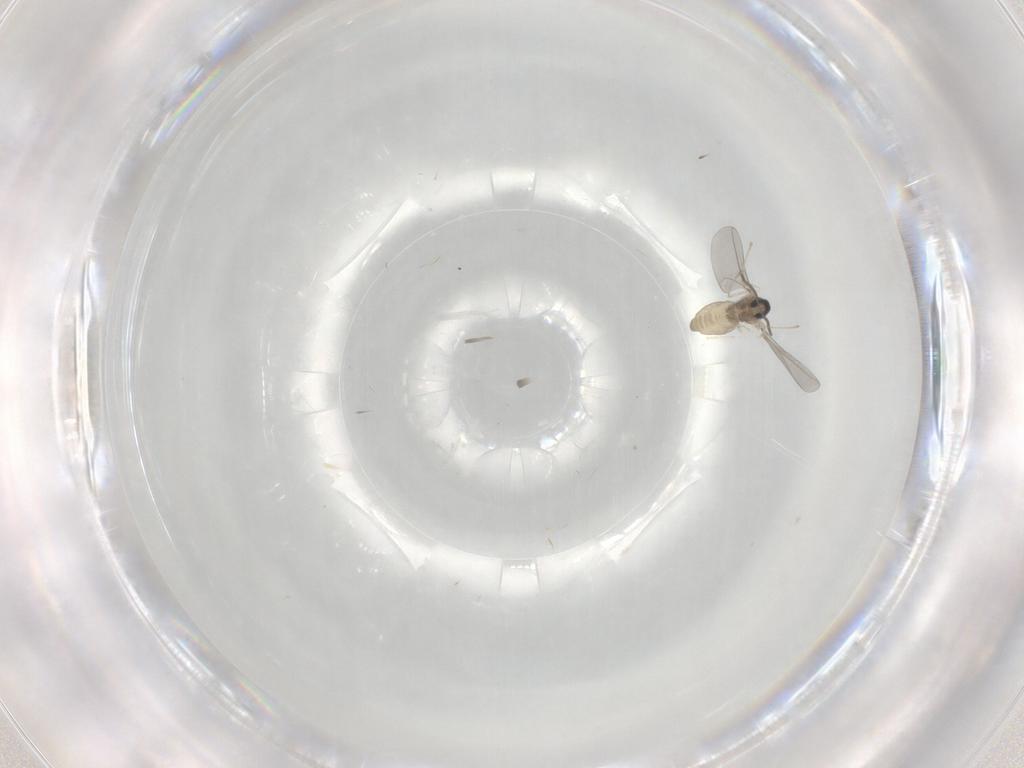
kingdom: Animalia
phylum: Arthropoda
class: Insecta
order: Diptera
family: Cecidomyiidae
